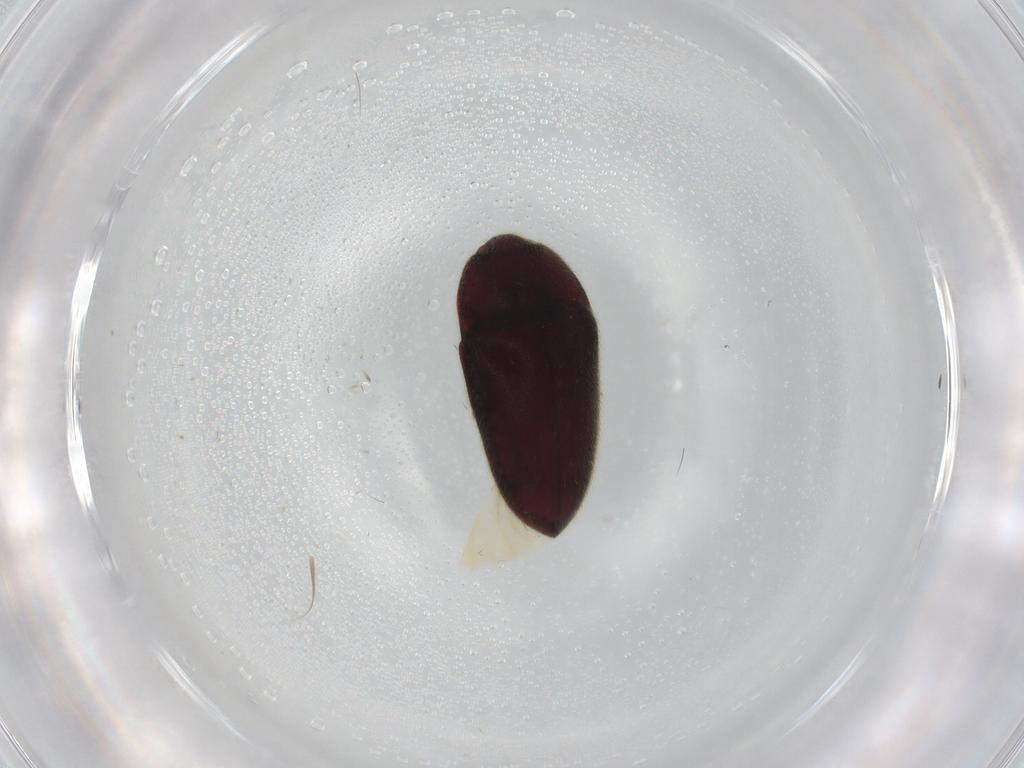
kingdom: Animalia
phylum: Arthropoda
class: Insecta
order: Coleoptera
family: Throscidae
